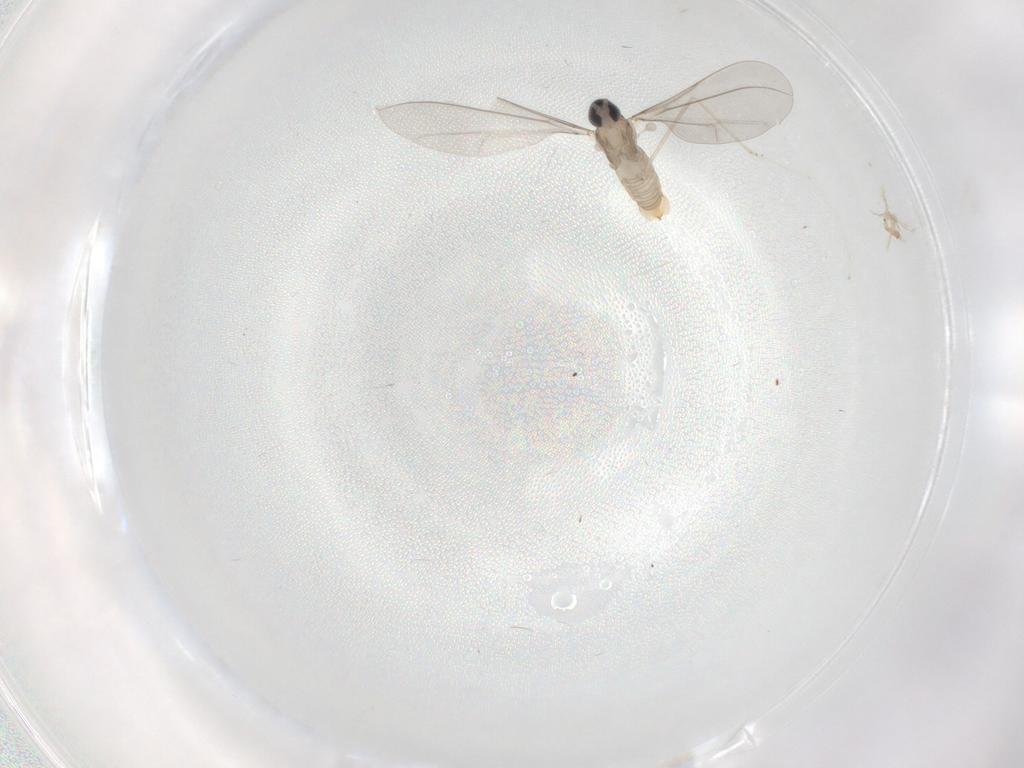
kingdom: Animalia
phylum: Arthropoda
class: Insecta
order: Diptera
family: Cecidomyiidae
